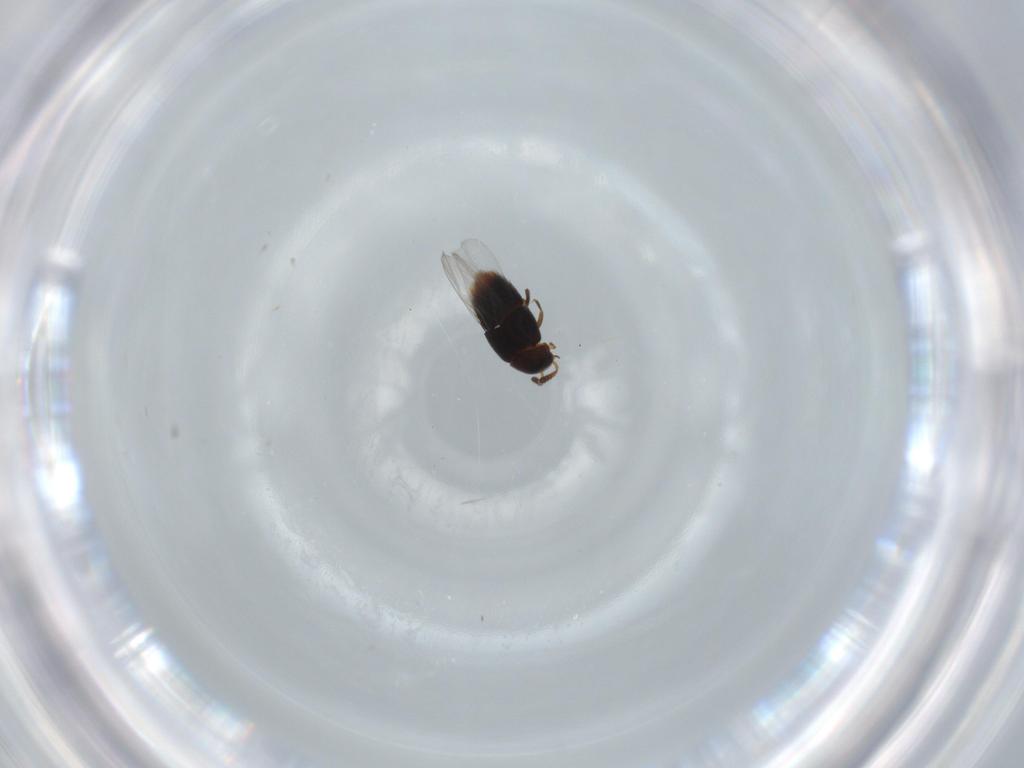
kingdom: Animalia
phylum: Arthropoda
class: Insecta
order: Coleoptera
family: Staphylinidae
